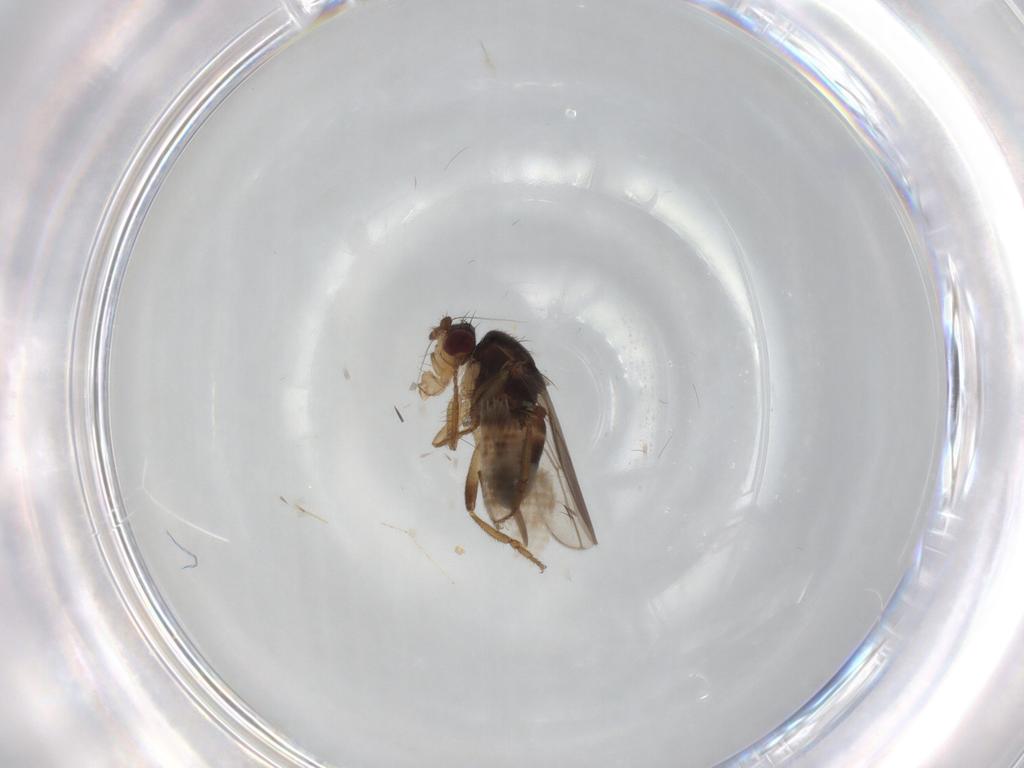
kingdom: Animalia
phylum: Arthropoda
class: Insecta
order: Diptera
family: Sphaeroceridae
